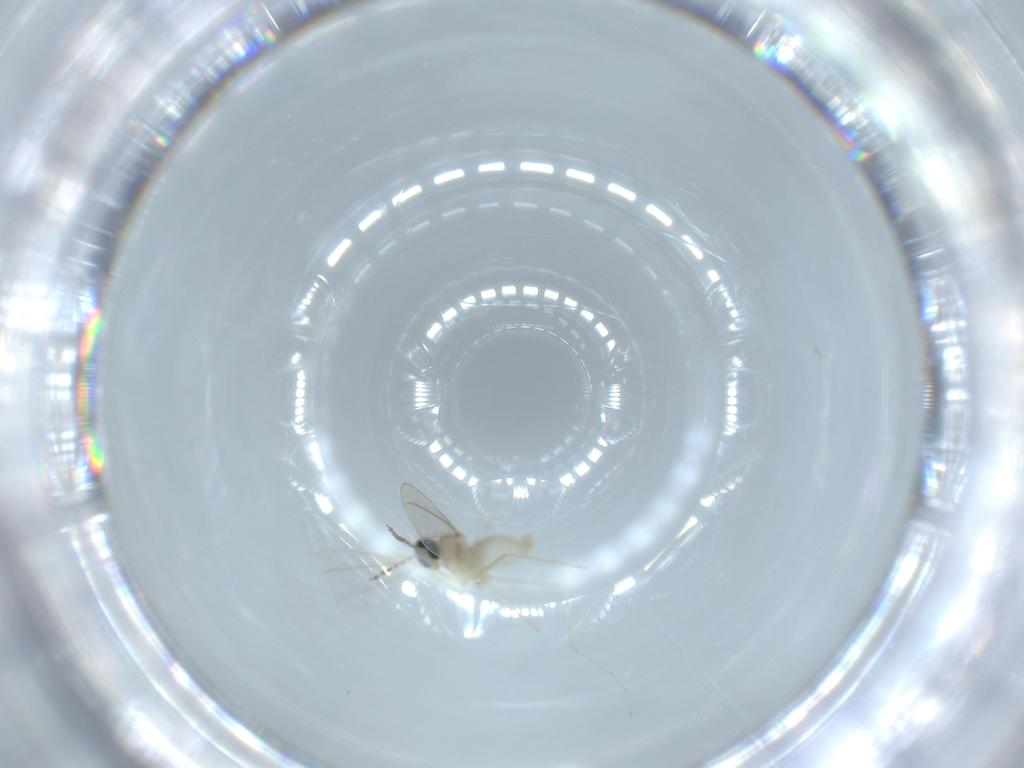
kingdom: Animalia
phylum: Arthropoda
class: Insecta
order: Diptera
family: Cecidomyiidae
